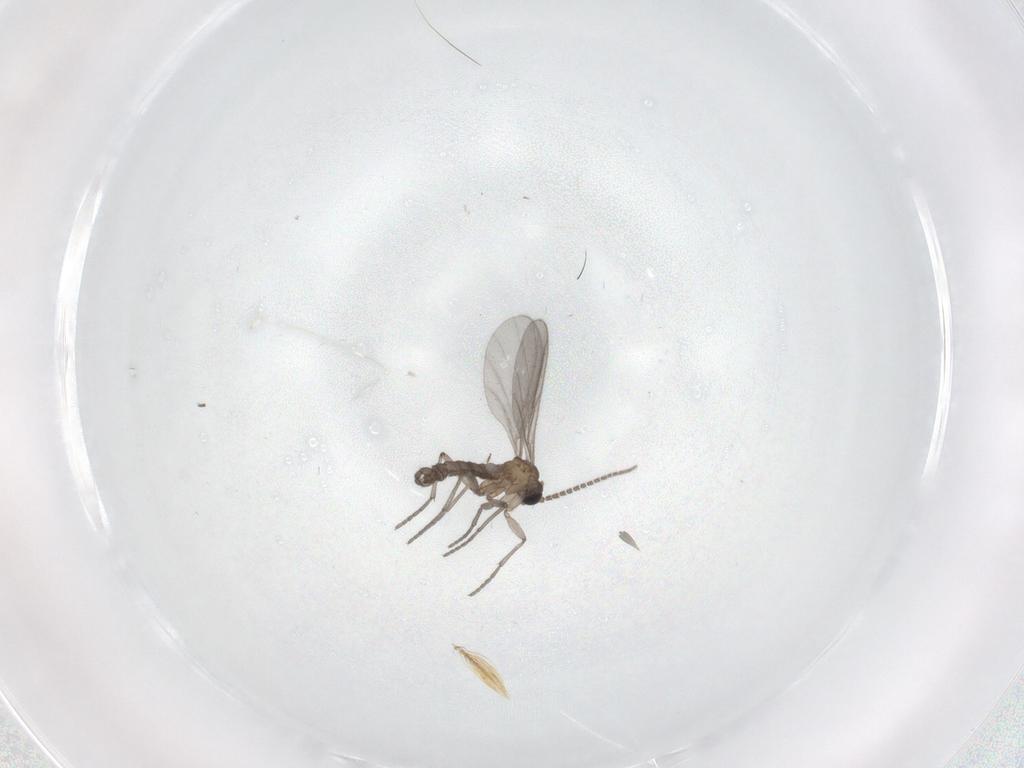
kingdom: Animalia
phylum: Arthropoda
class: Insecta
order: Diptera
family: Sciaridae
